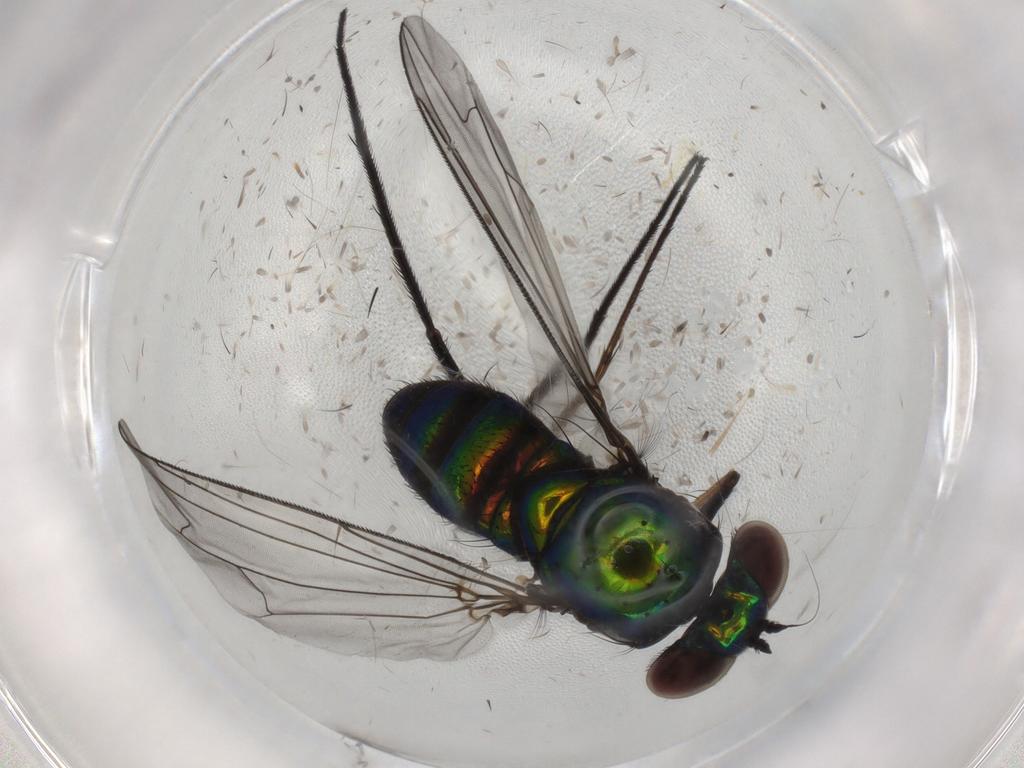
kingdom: Animalia
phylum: Arthropoda
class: Insecta
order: Diptera
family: Dolichopodidae
